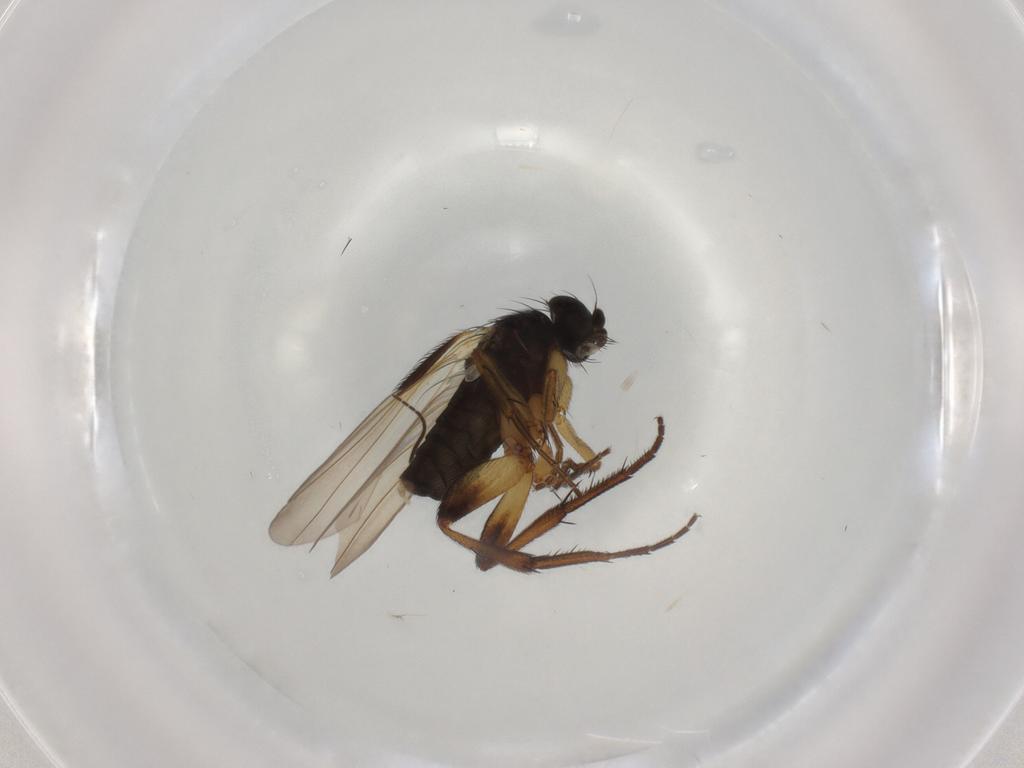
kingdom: Animalia
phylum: Arthropoda
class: Insecta
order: Diptera
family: Phoridae
